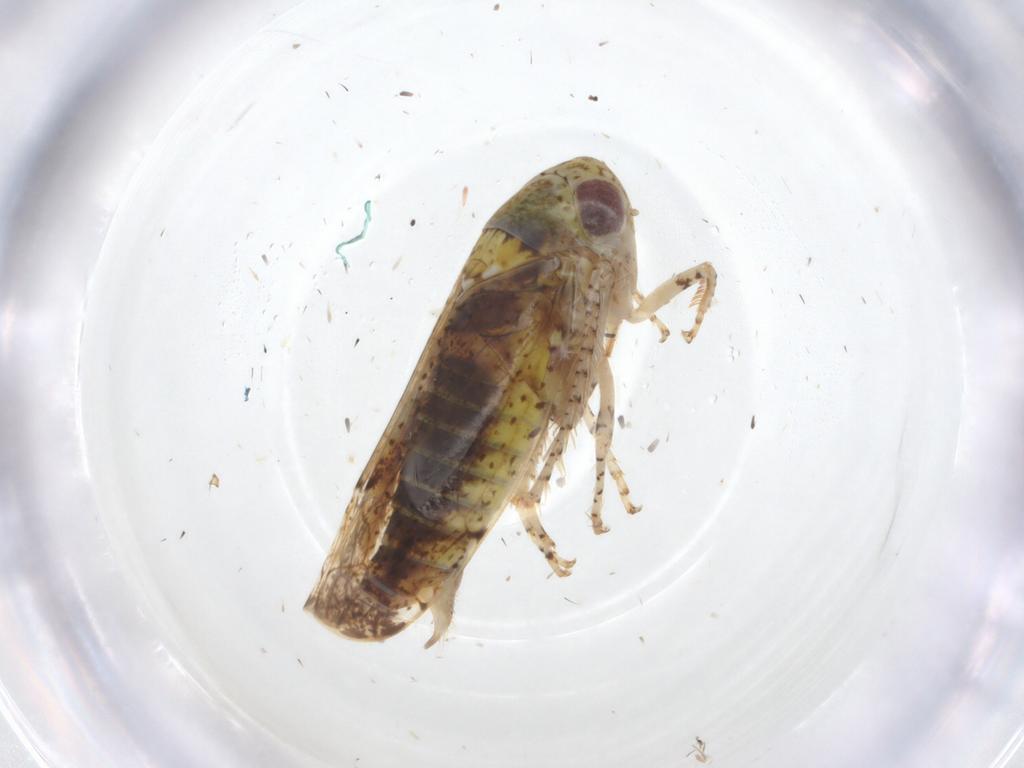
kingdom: Animalia
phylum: Arthropoda
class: Insecta
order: Hemiptera
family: Cicadellidae
